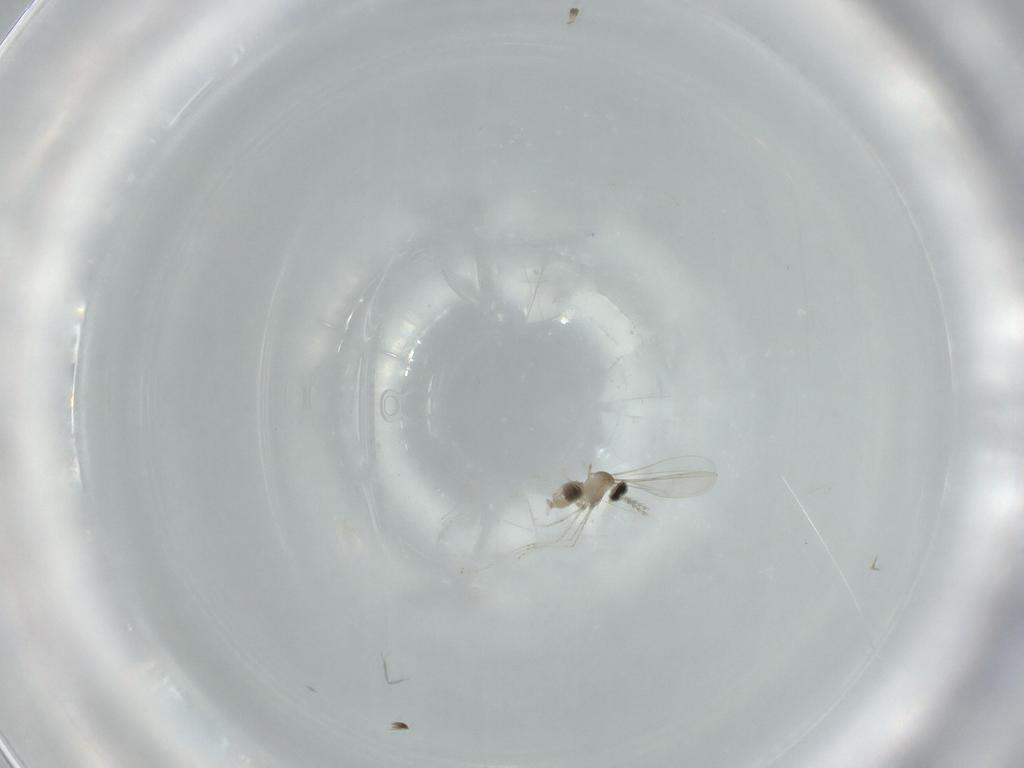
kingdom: Animalia
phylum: Arthropoda
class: Insecta
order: Diptera
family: Cecidomyiidae
